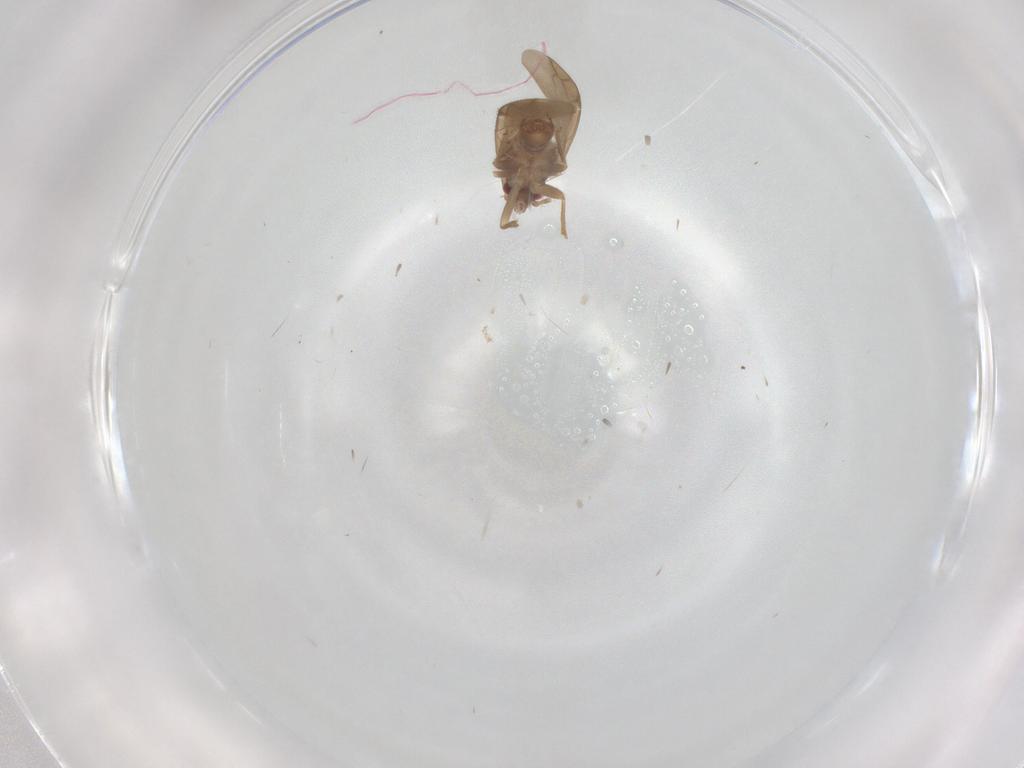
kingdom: Animalia
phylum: Arthropoda
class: Insecta
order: Hemiptera
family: Ceratocombidae
